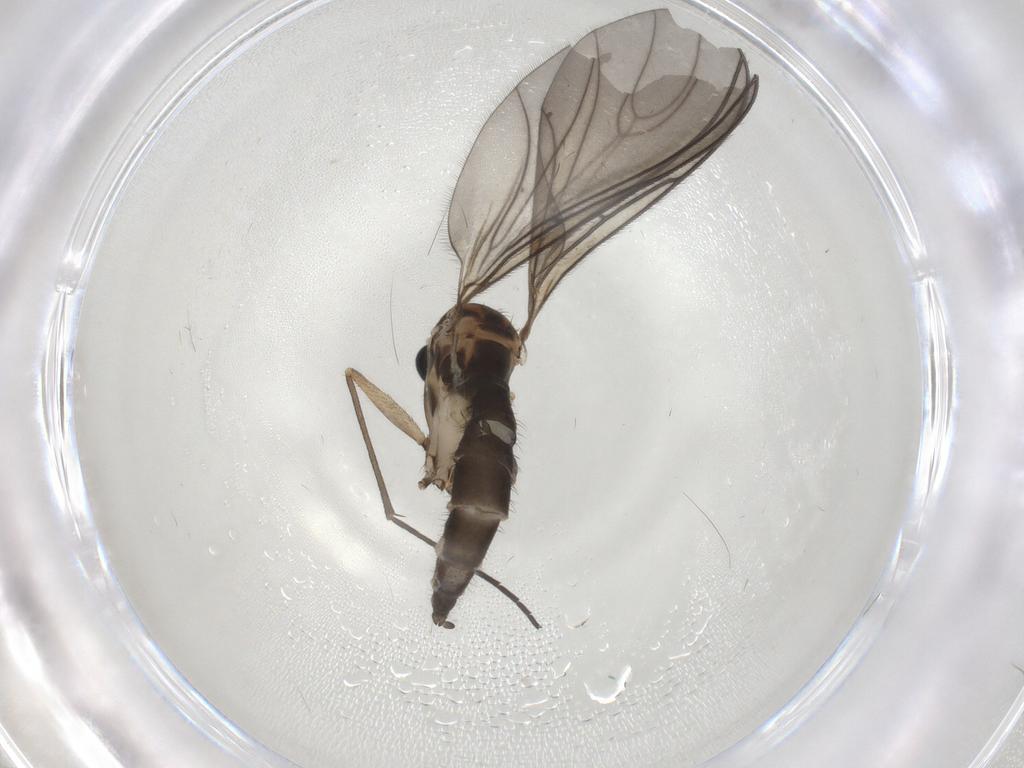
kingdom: Animalia
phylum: Arthropoda
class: Insecta
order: Diptera
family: Sciaridae
